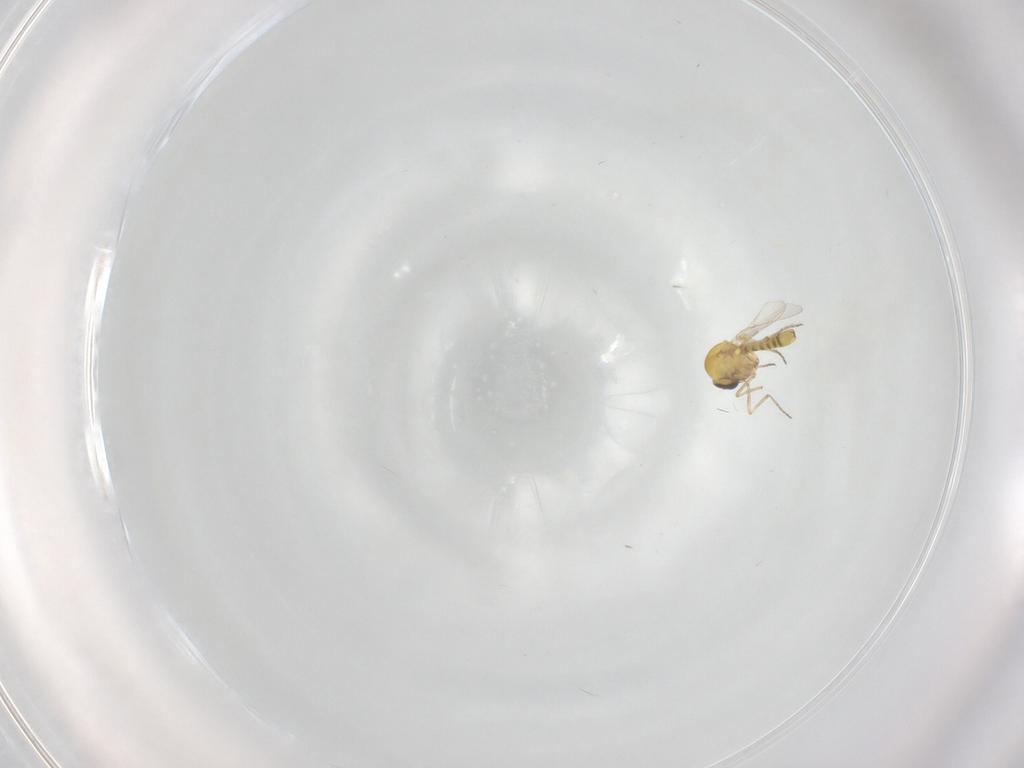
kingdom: Animalia
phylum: Arthropoda
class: Insecta
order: Diptera
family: Ceratopogonidae
